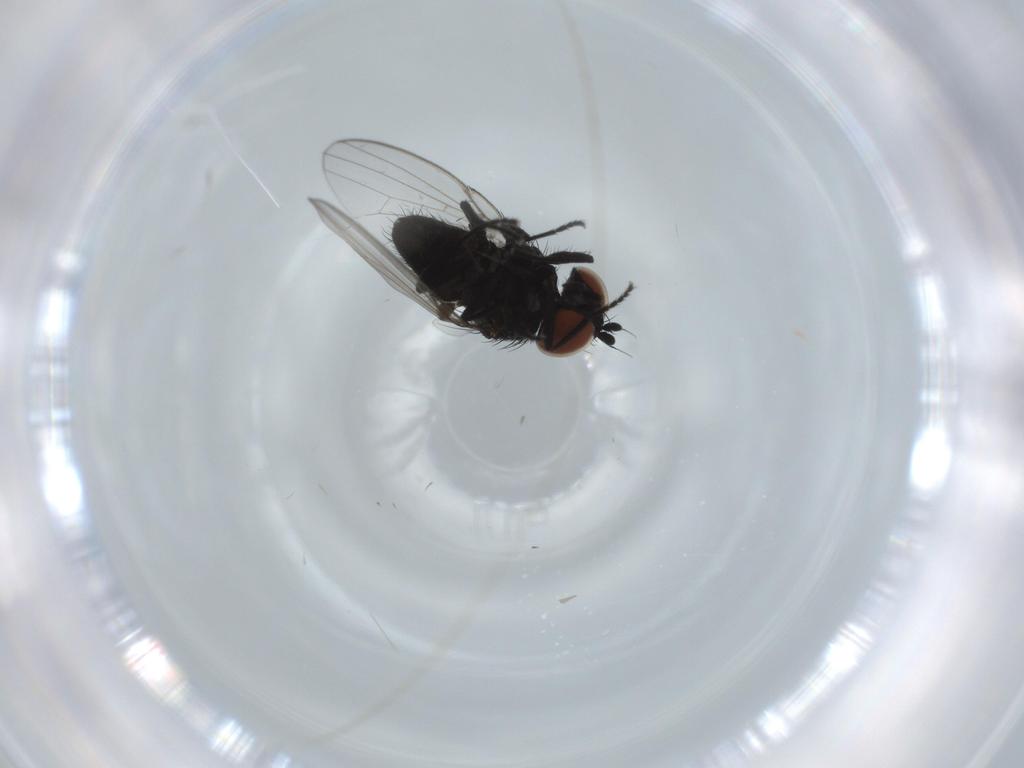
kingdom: Animalia
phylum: Arthropoda
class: Insecta
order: Diptera
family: Milichiidae
